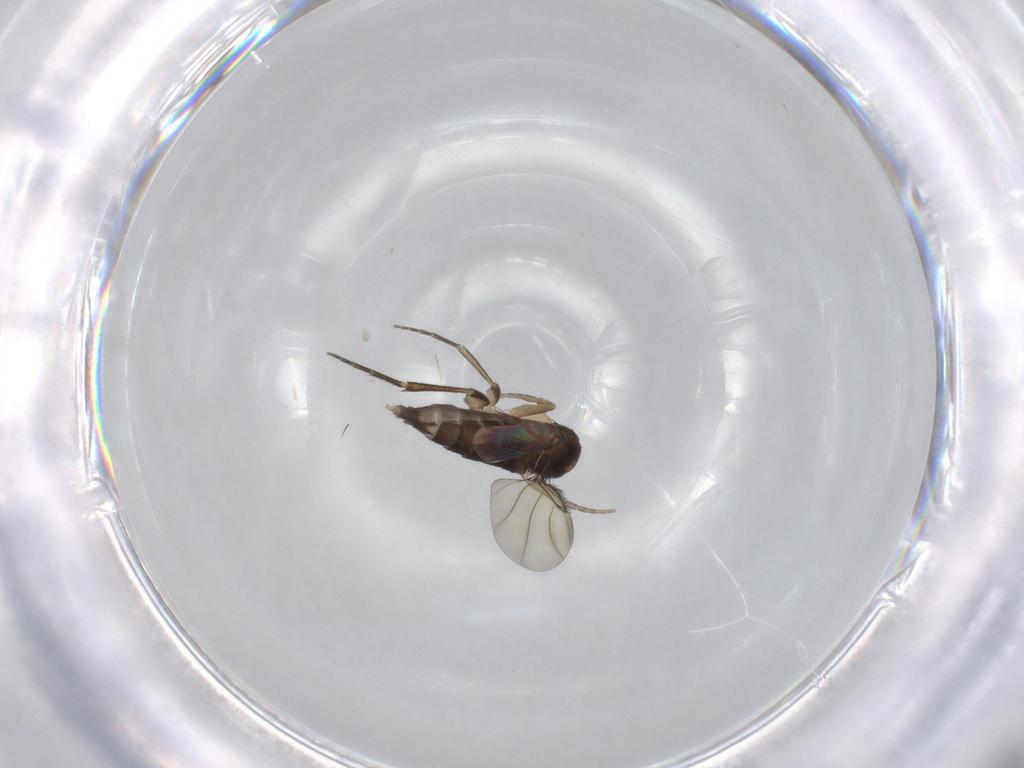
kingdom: Animalia
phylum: Arthropoda
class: Insecta
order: Diptera
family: Phoridae
